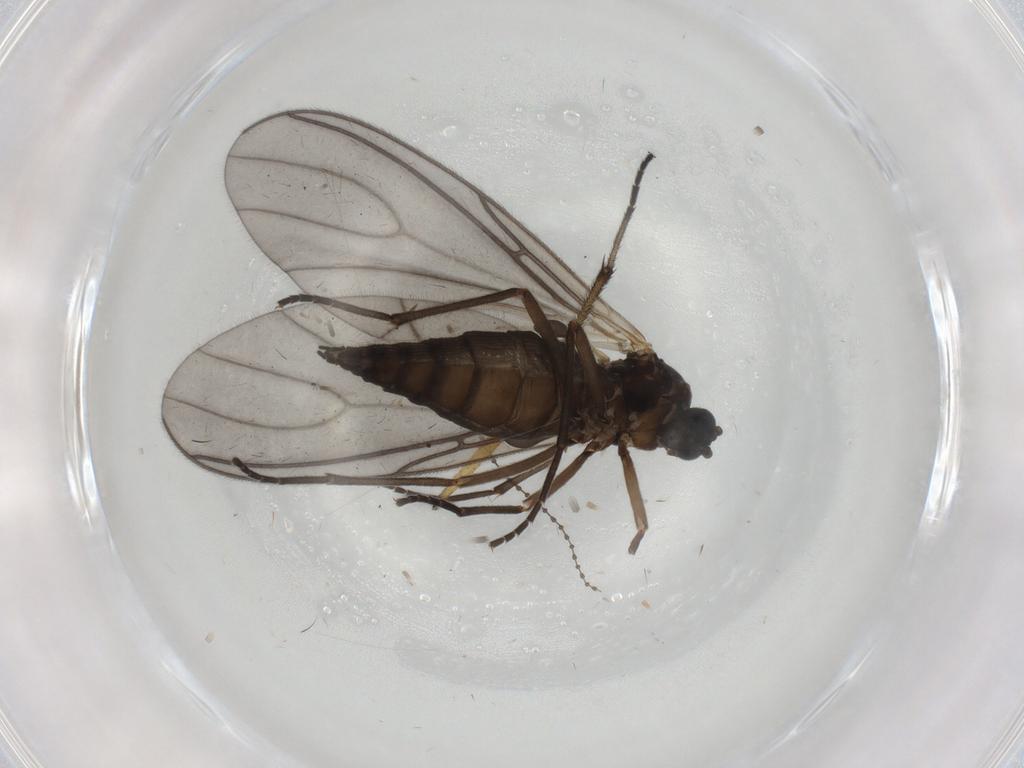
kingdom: Animalia
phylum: Arthropoda
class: Insecta
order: Diptera
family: Sciaridae
